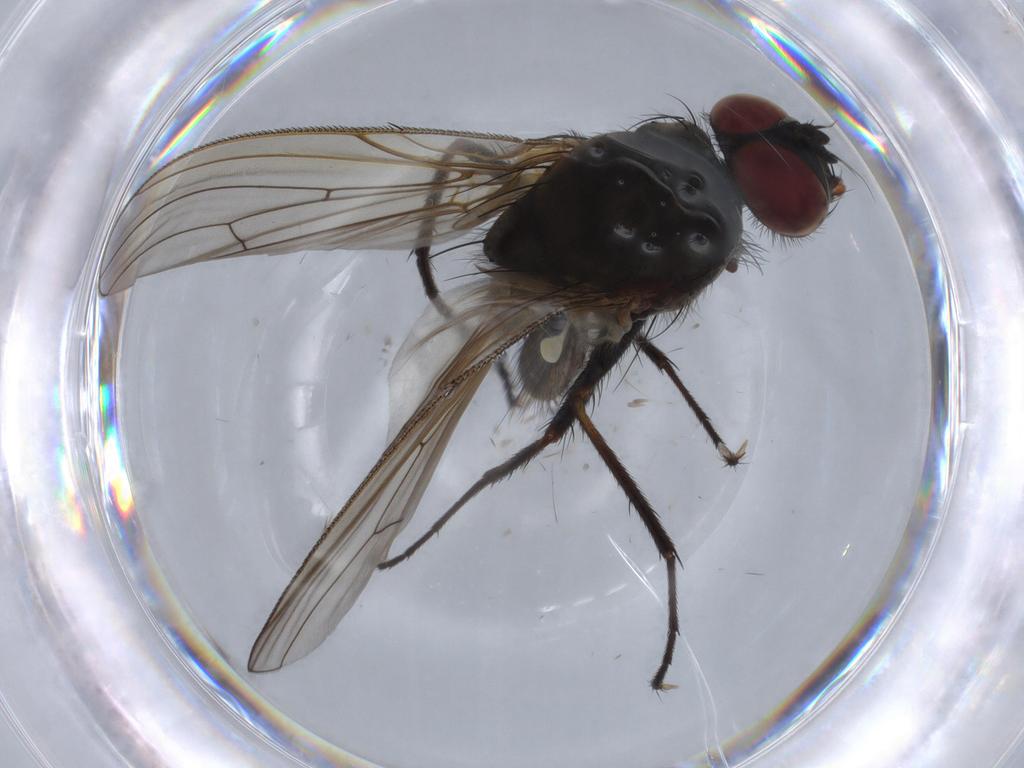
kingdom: Animalia
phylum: Arthropoda
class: Insecta
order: Diptera
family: Anthomyiidae
